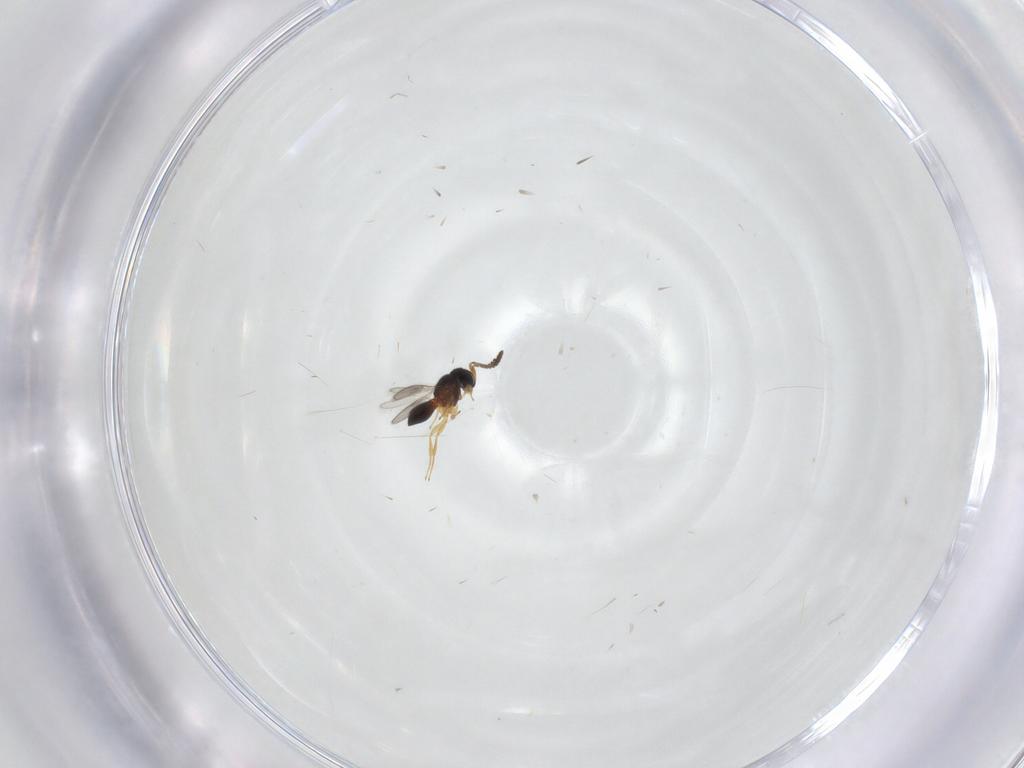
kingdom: Animalia
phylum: Arthropoda
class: Insecta
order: Hymenoptera
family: Scelionidae
